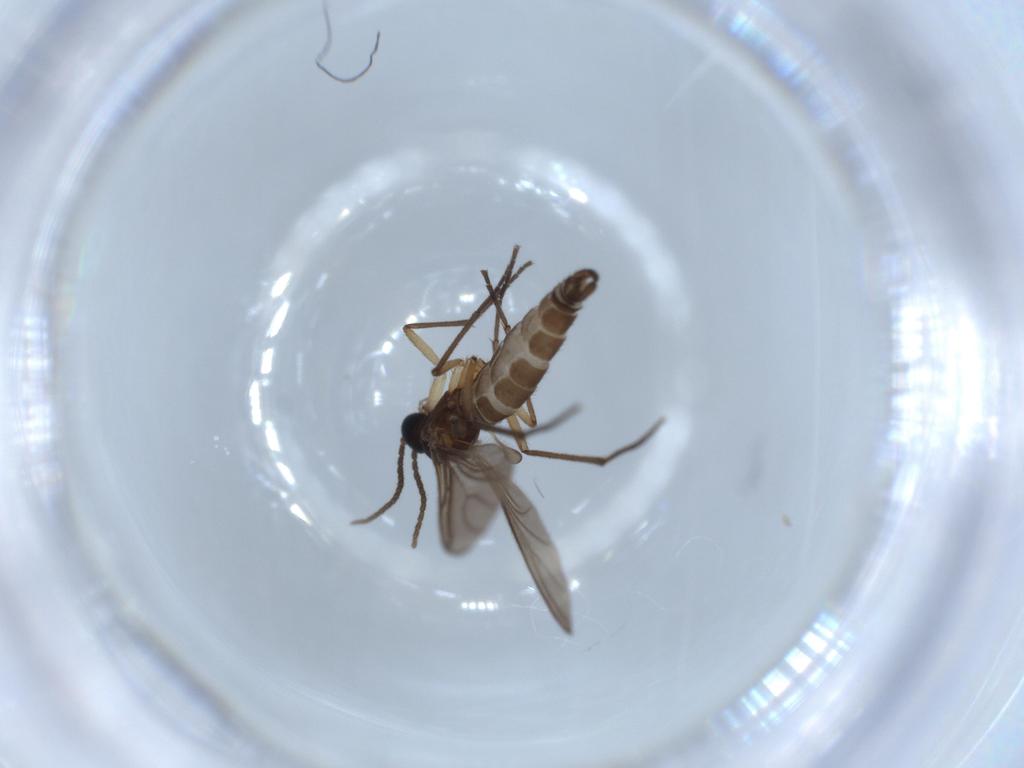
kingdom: Animalia
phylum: Arthropoda
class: Insecta
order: Diptera
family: Sciaridae
